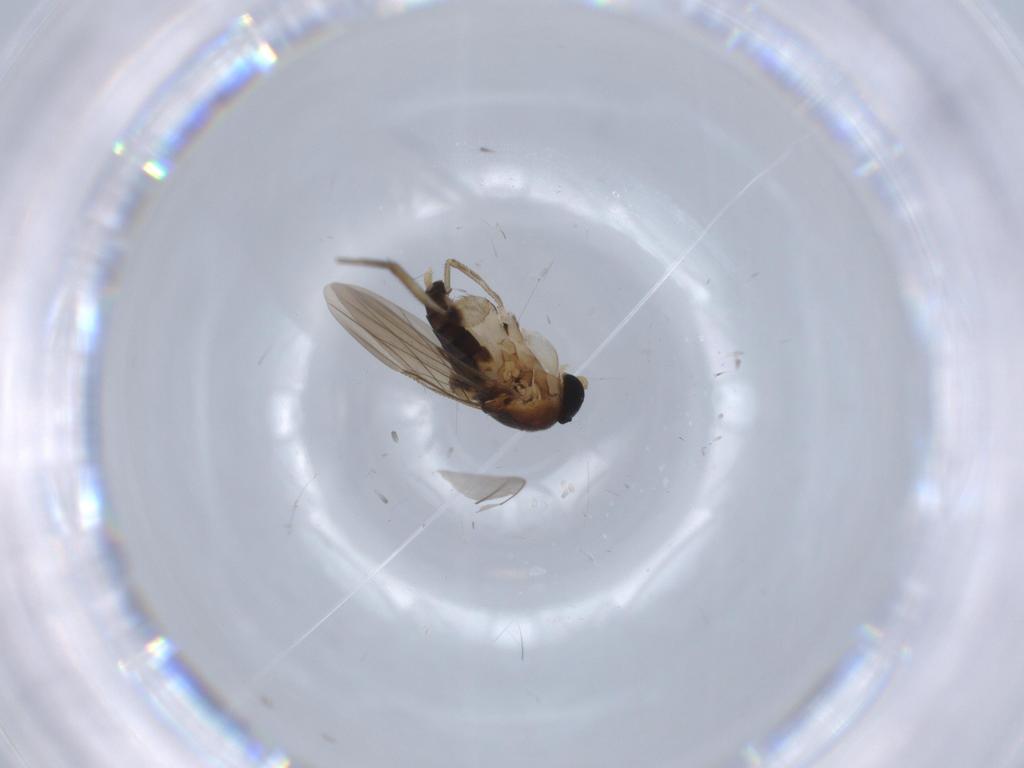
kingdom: Animalia
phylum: Arthropoda
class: Insecta
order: Diptera
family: Phoridae
